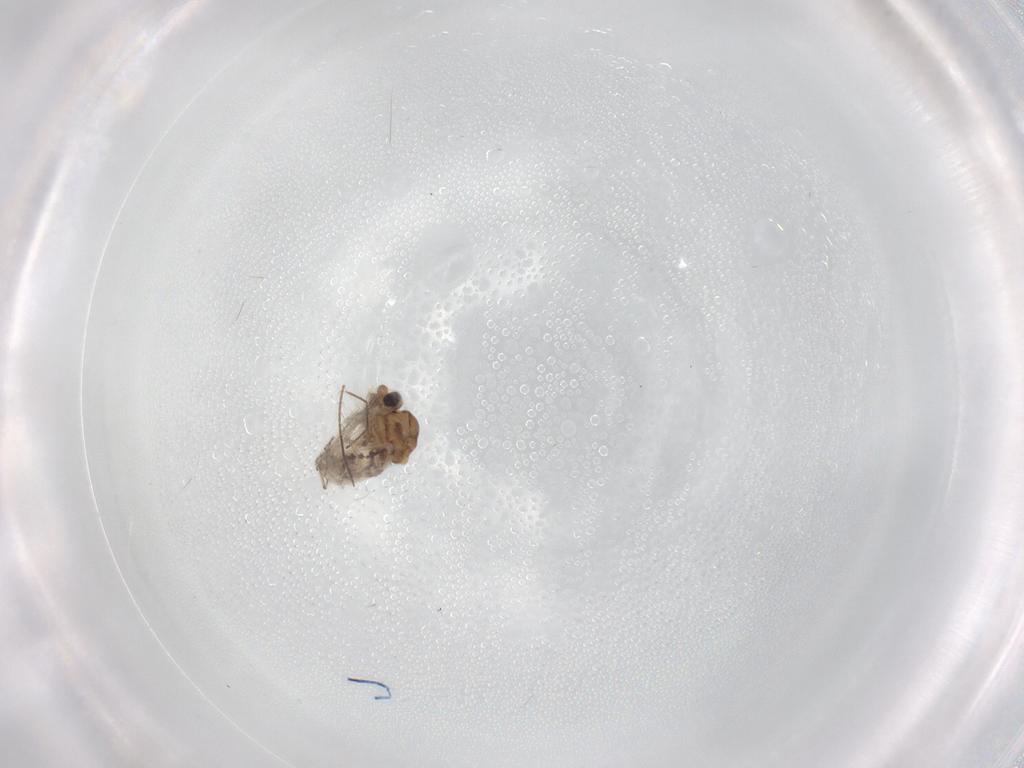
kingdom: Animalia
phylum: Arthropoda
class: Insecta
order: Diptera
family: Ceratopogonidae
